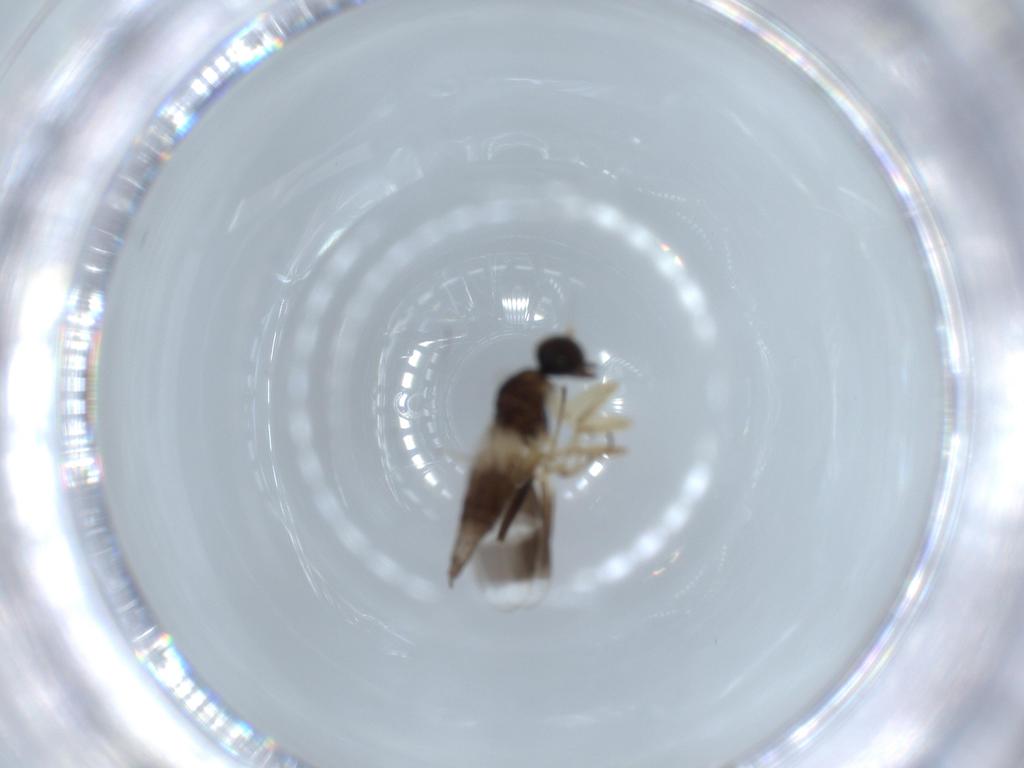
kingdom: Animalia
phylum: Arthropoda
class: Insecta
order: Diptera
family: Hybotidae
